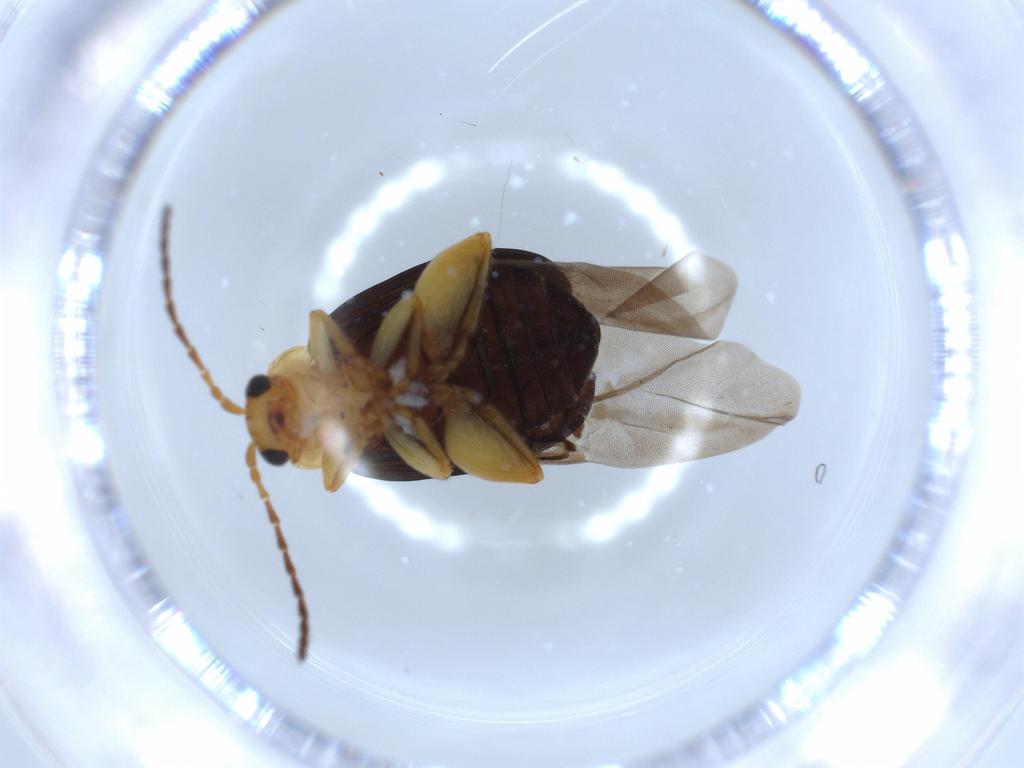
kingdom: Animalia
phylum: Arthropoda
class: Insecta
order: Coleoptera
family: Chrysomelidae
